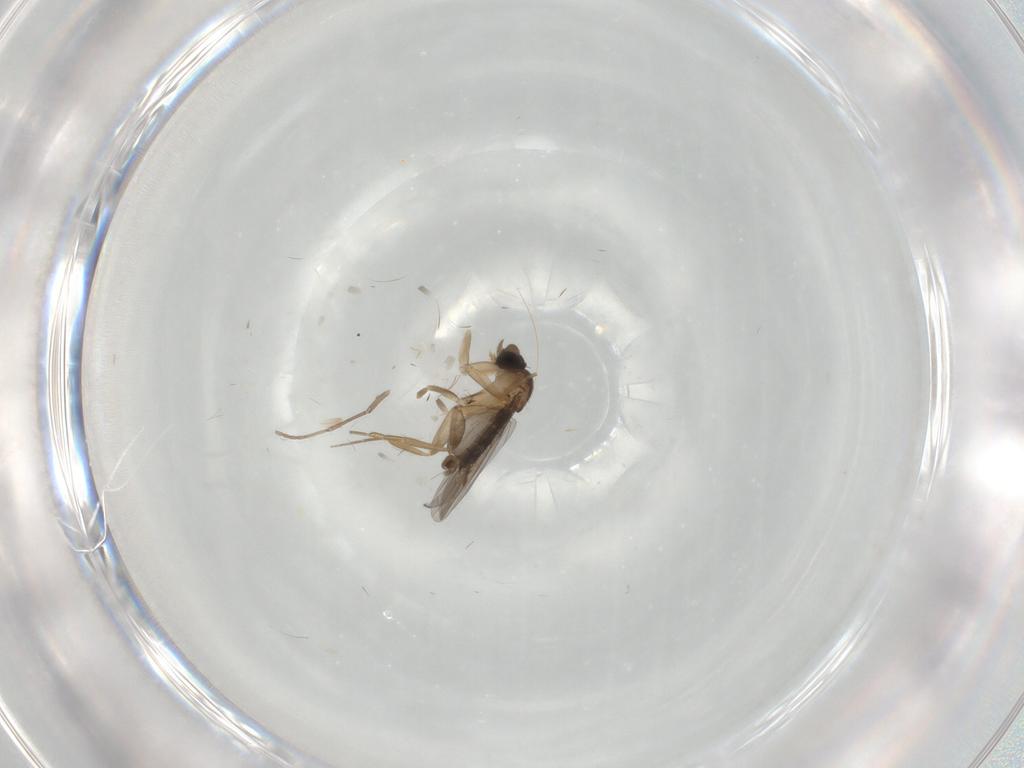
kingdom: Animalia
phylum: Arthropoda
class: Insecta
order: Diptera
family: Psychodidae
